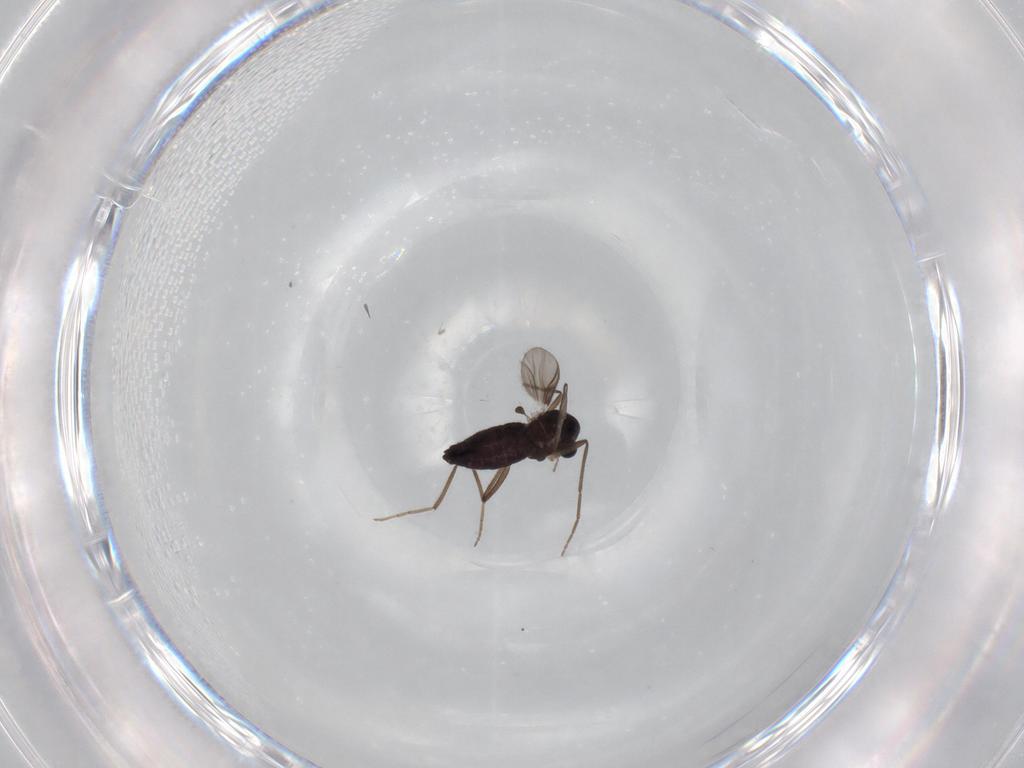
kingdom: Animalia
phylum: Arthropoda
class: Insecta
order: Diptera
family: Chironomidae
